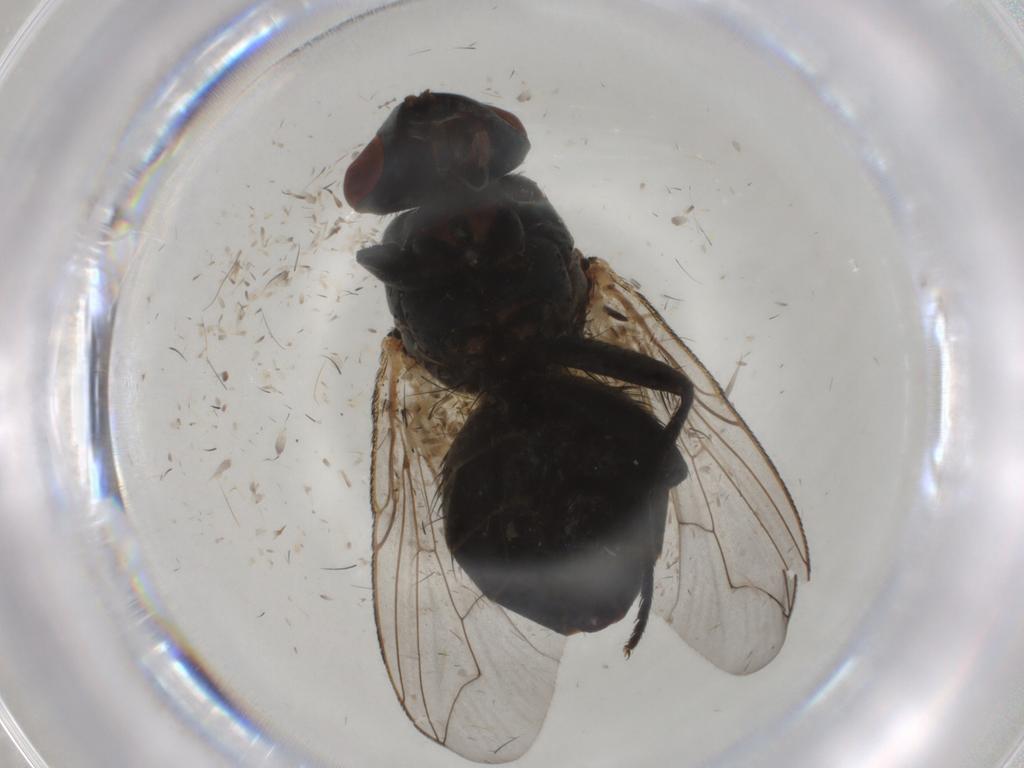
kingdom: Animalia
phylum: Arthropoda
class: Insecta
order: Diptera
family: Sarcophagidae
